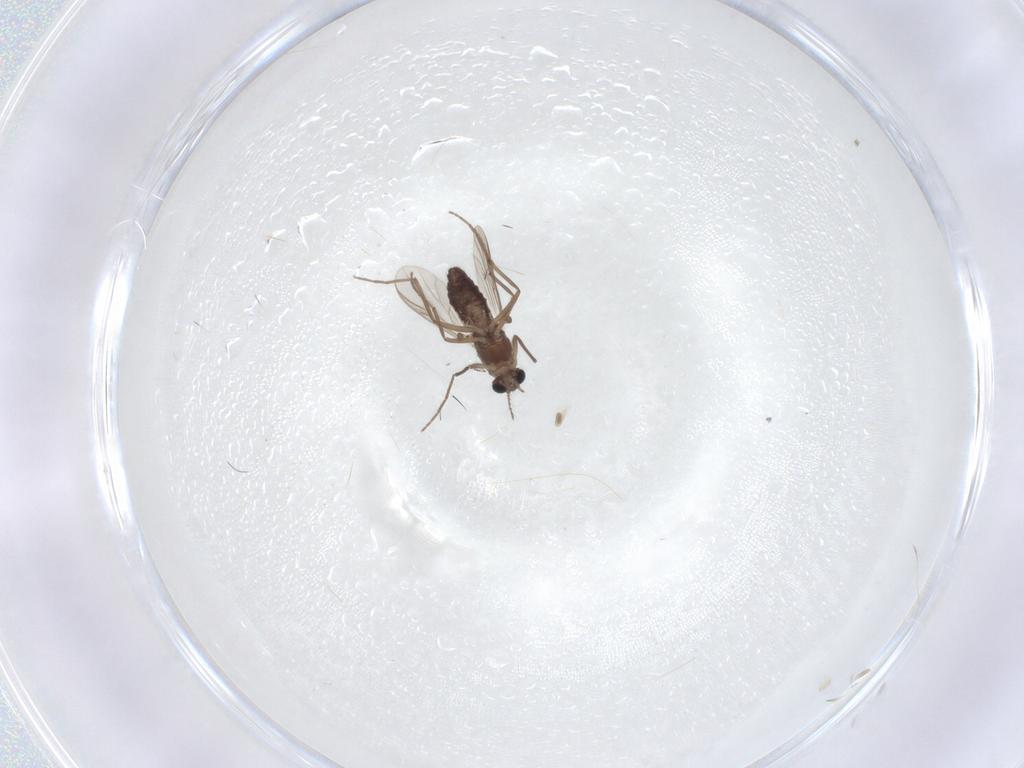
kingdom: Animalia
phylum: Arthropoda
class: Insecta
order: Diptera
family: Chironomidae
